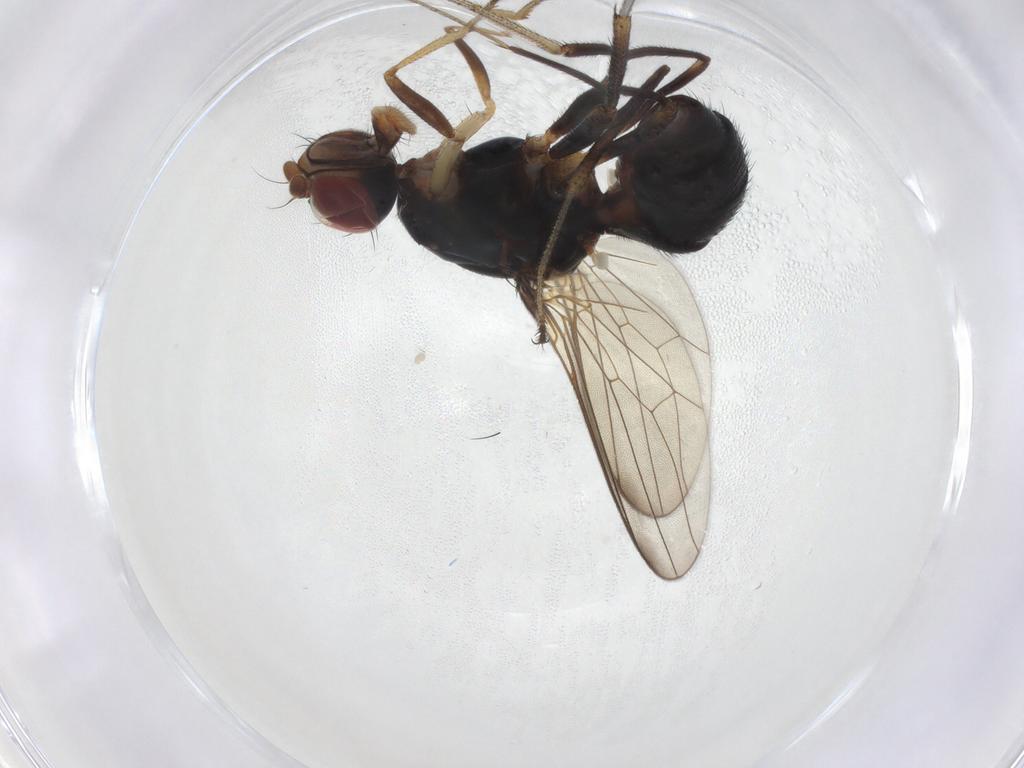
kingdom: Animalia
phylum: Arthropoda
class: Insecta
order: Diptera
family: Sepsidae
